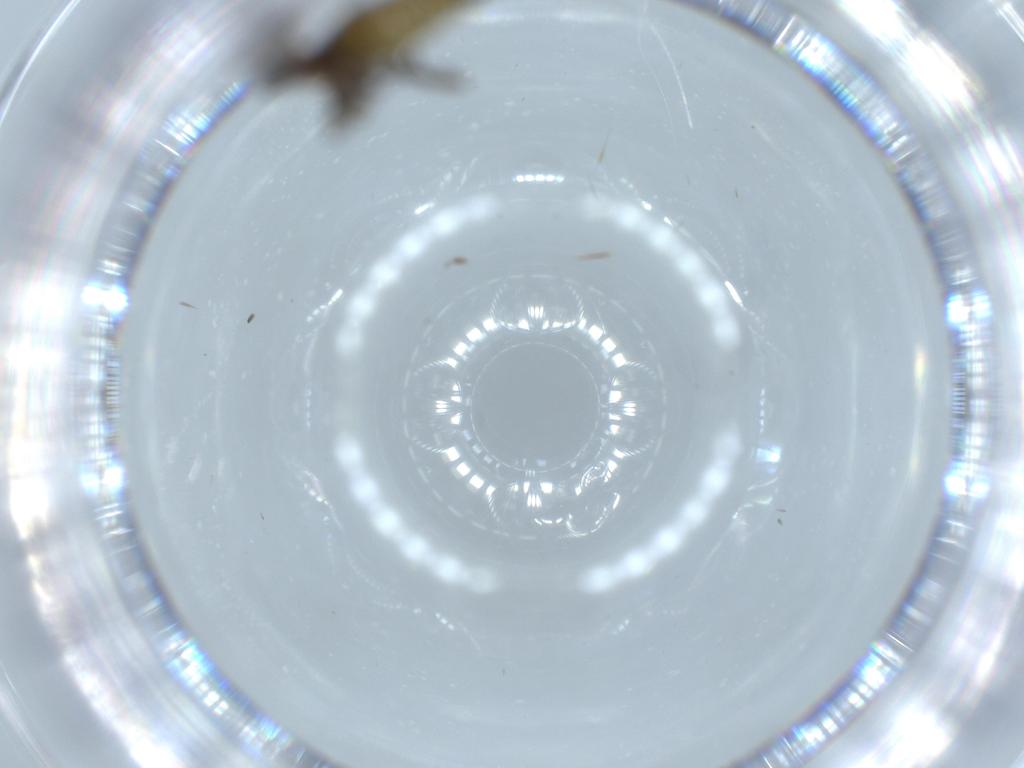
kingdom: Animalia
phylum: Arthropoda
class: Insecta
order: Diptera
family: Sciaridae
